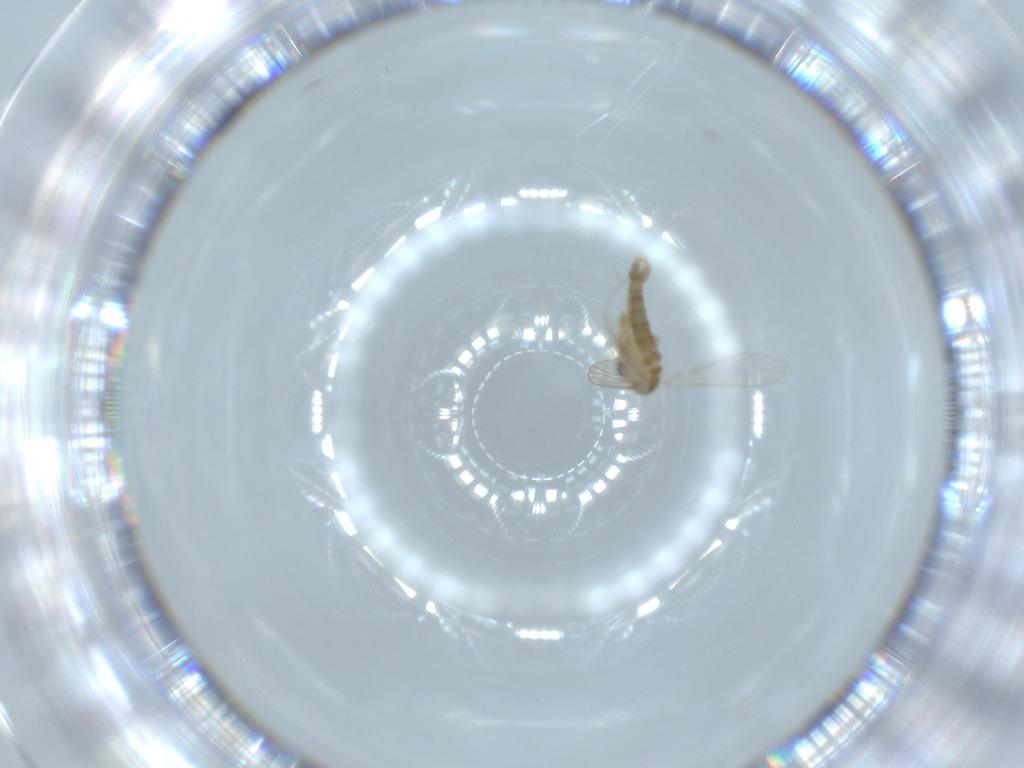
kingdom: Animalia
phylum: Arthropoda
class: Insecta
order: Diptera
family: Psychodidae
